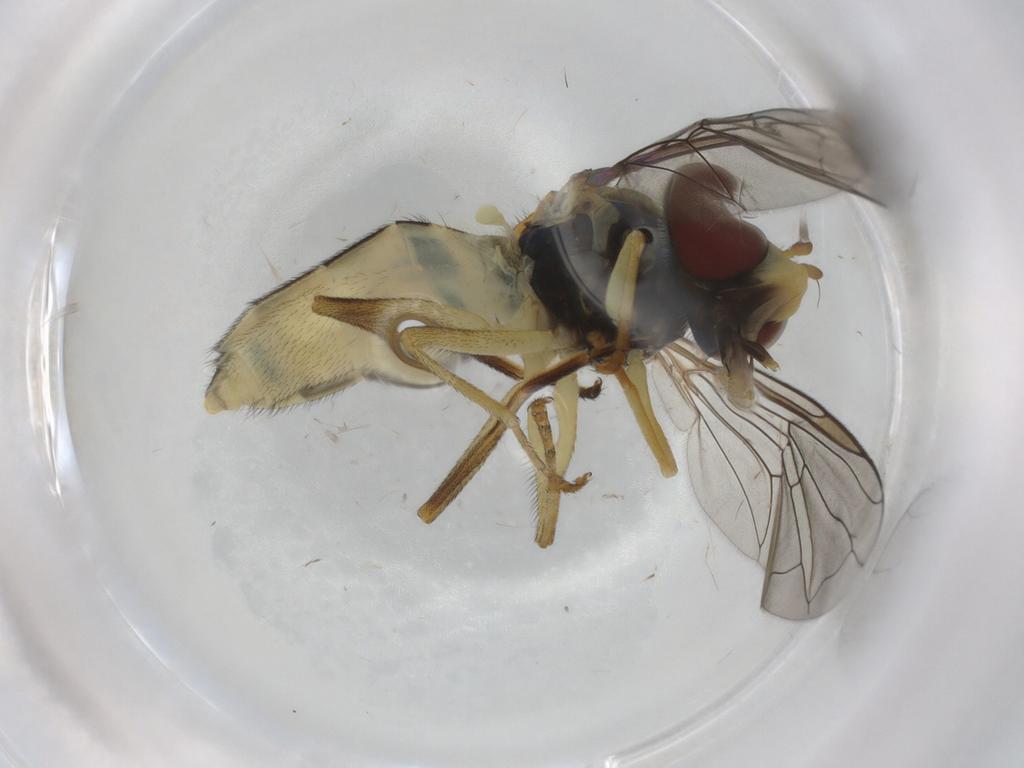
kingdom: Animalia
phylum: Arthropoda
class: Insecta
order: Diptera
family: Syrphidae
